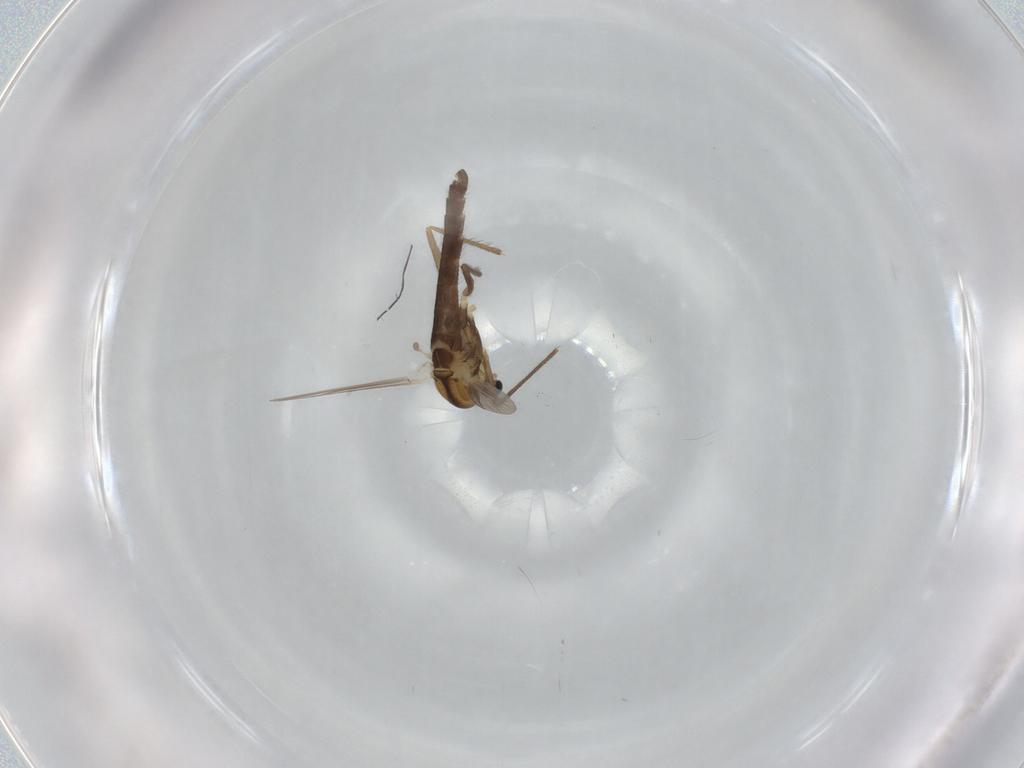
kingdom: Animalia
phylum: Arthropoda
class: Insecta
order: Diptera
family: Chironomidae
